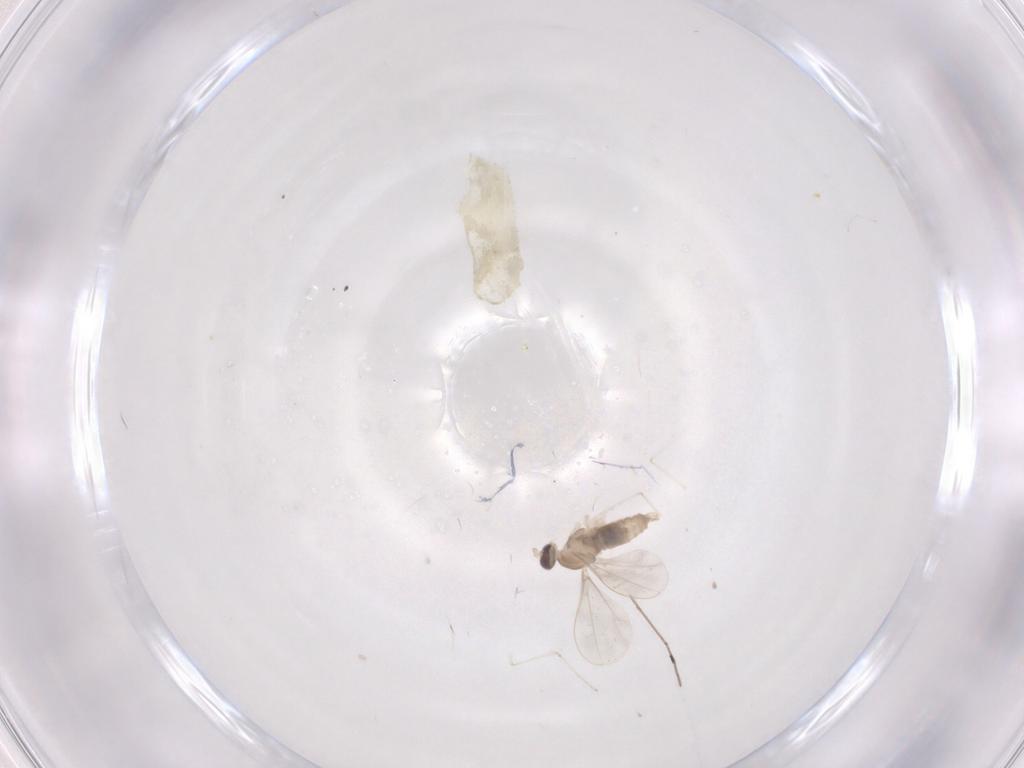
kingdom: Animalia
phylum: Arthropoda
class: Insecta
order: Diptera
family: Cecidomyiidae
